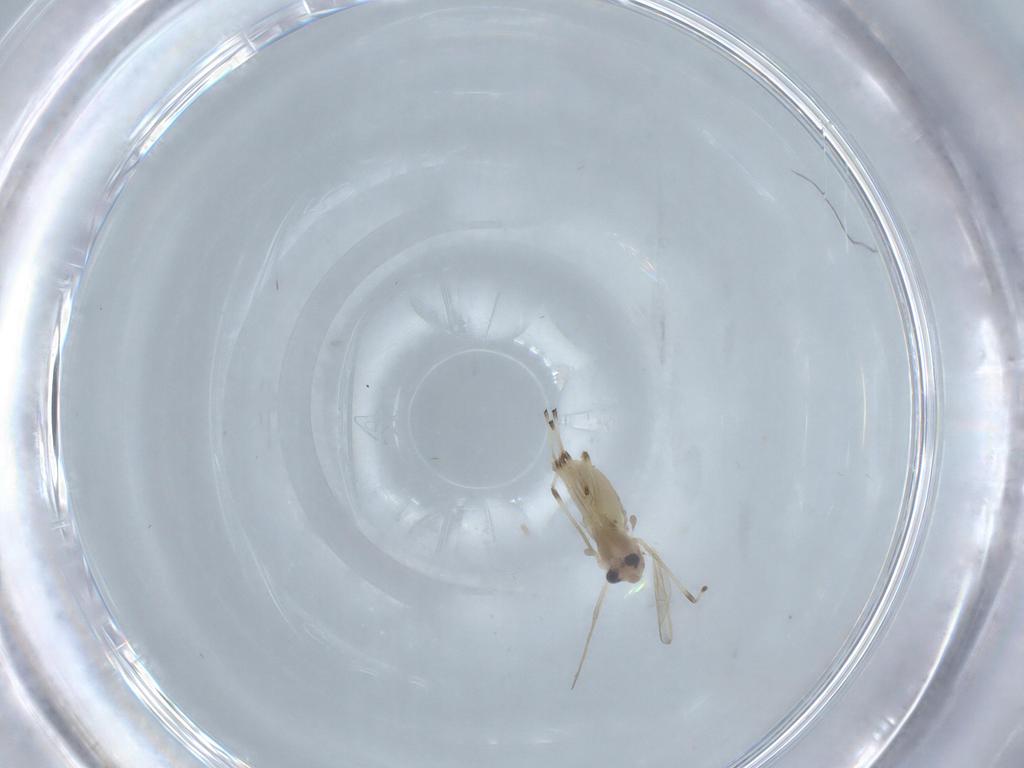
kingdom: Animalia
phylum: Arthropoda
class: Insecta
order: Diptera
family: Chironomidae
